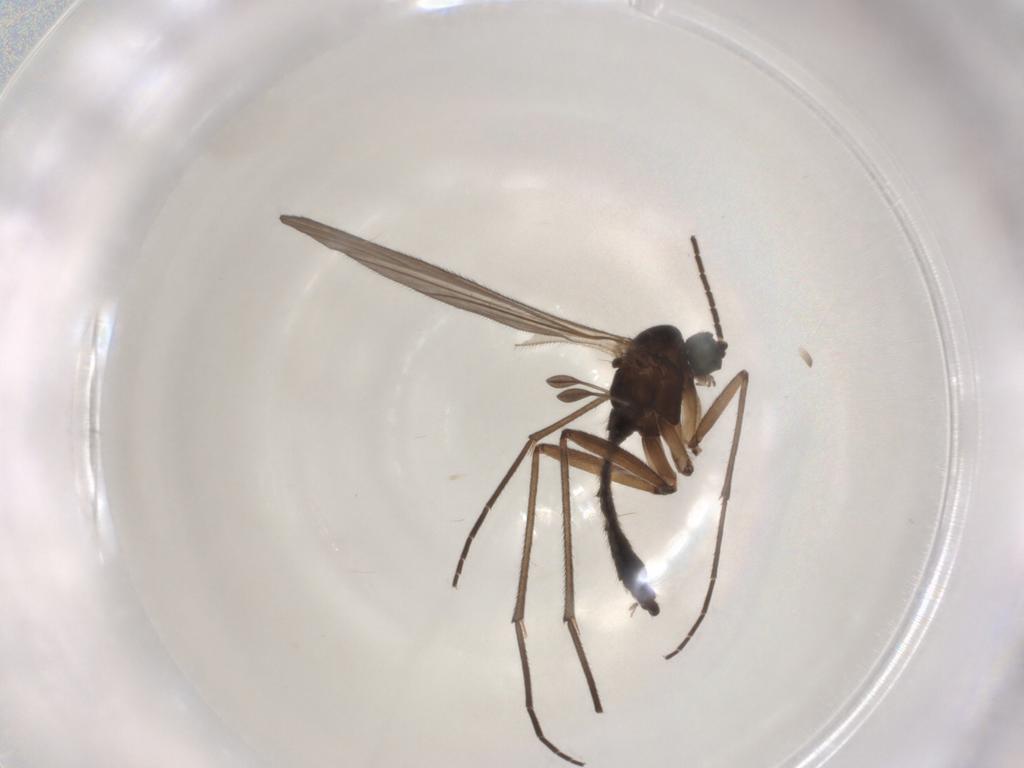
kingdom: Animalia
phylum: Arthropoda
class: Insecta
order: Diptera
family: Sciaridae
